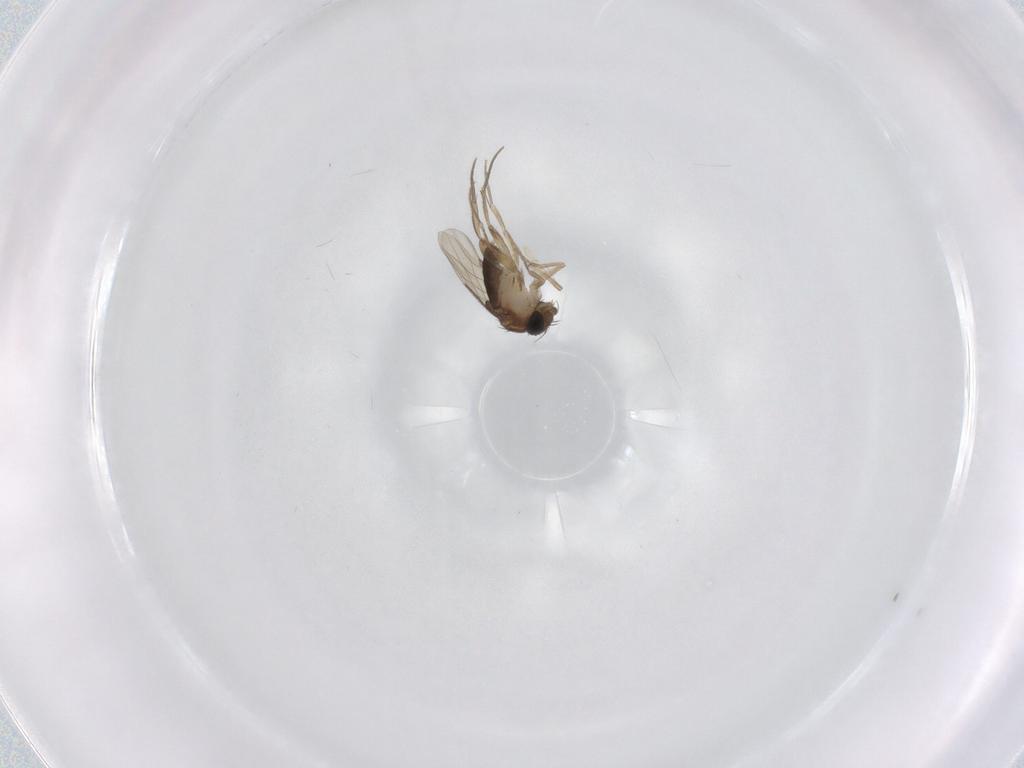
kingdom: Animalia
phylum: Arthropoda
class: Insecta
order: Diptera
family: Phoridae
